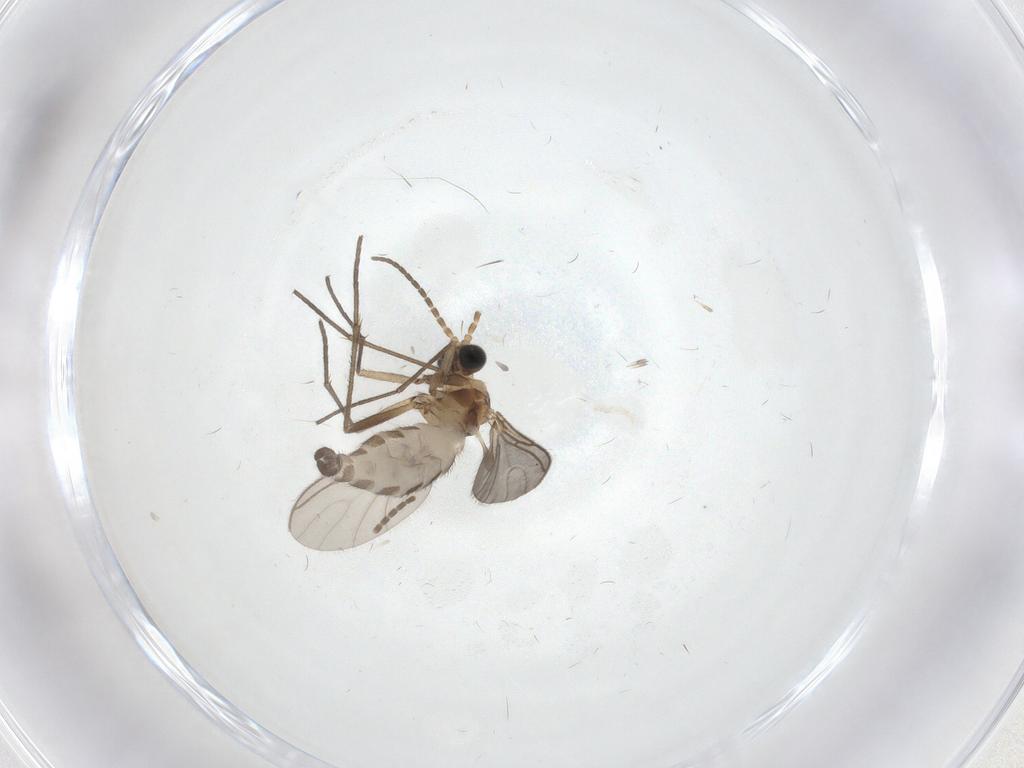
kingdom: Animalia
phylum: Arthropoda
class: Insecta
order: Diptera
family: Sciaridae
